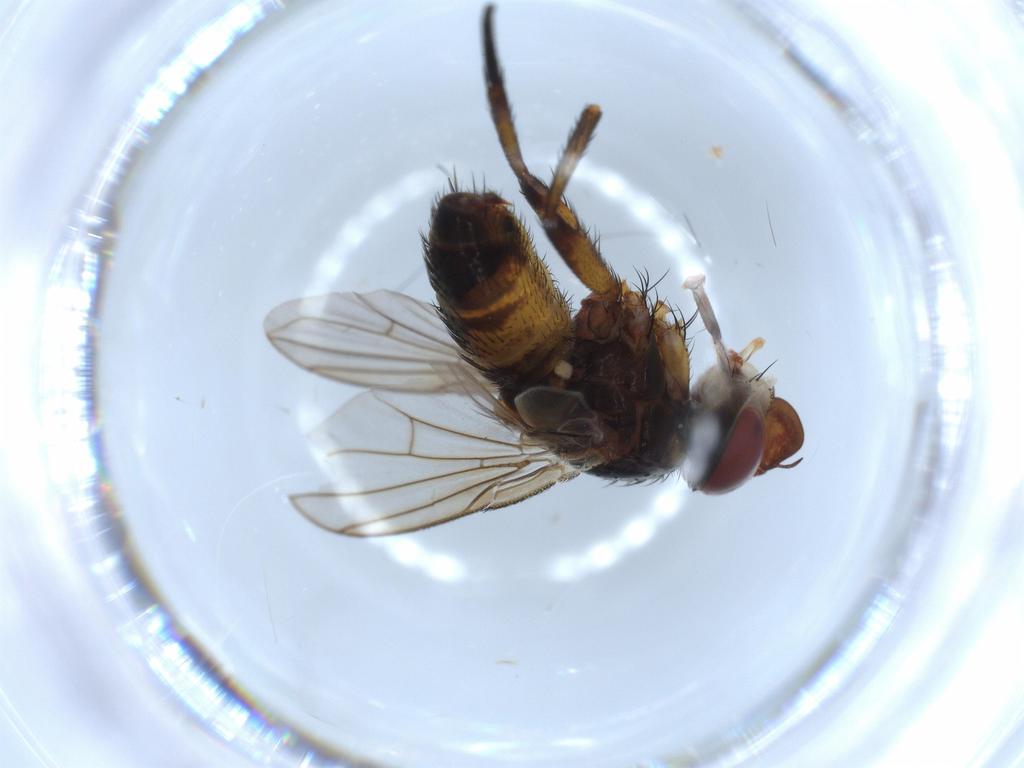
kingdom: Animalia
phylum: Arthropoda
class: Insecta
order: Diptera
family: Tachinidae
